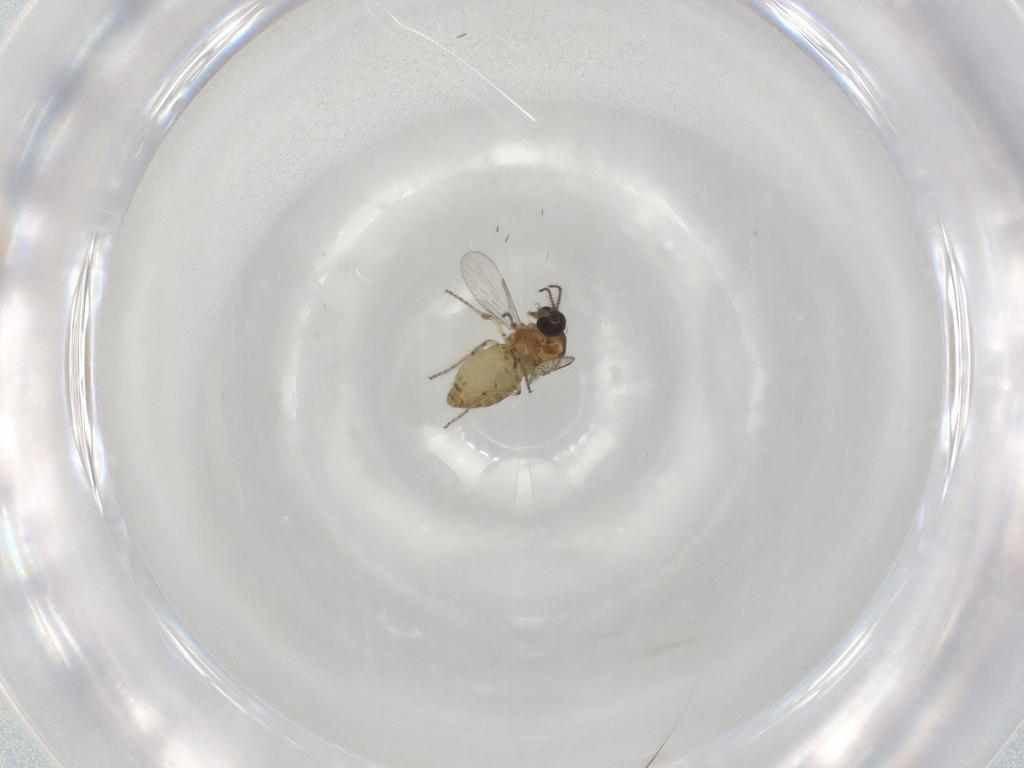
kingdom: Animalia
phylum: Arthropoda
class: Insecta
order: Diptera
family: Ceratopogonidae
